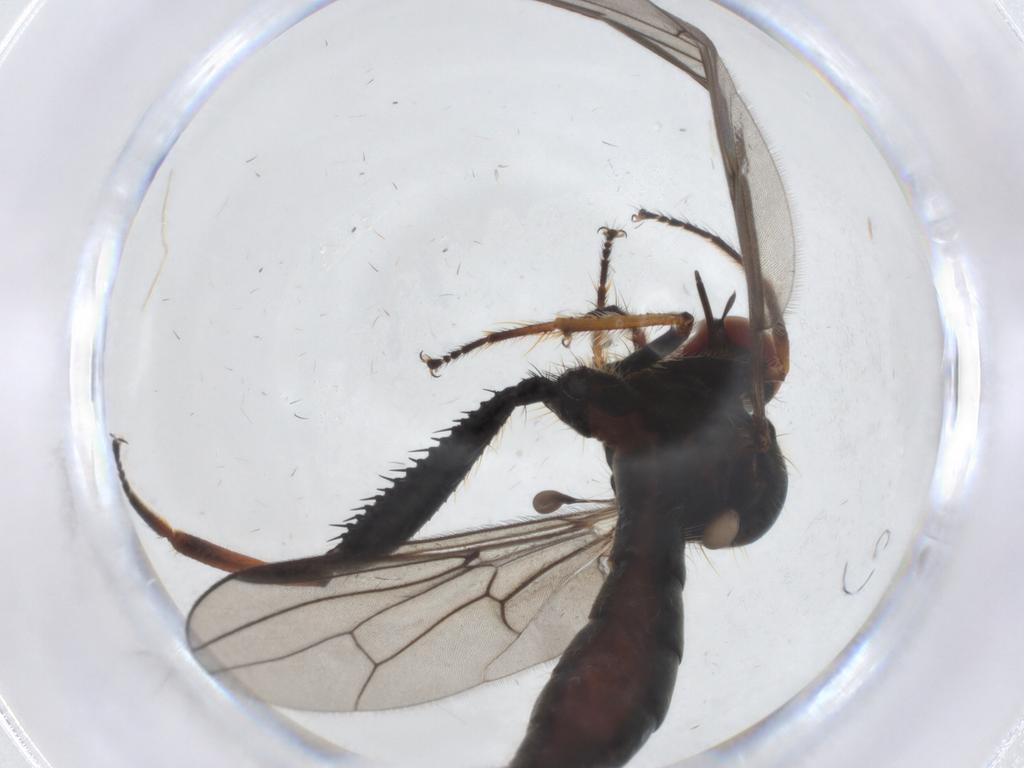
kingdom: Animalia
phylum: Arthropoda
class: Insecta
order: Diptera
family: Hybotidae
